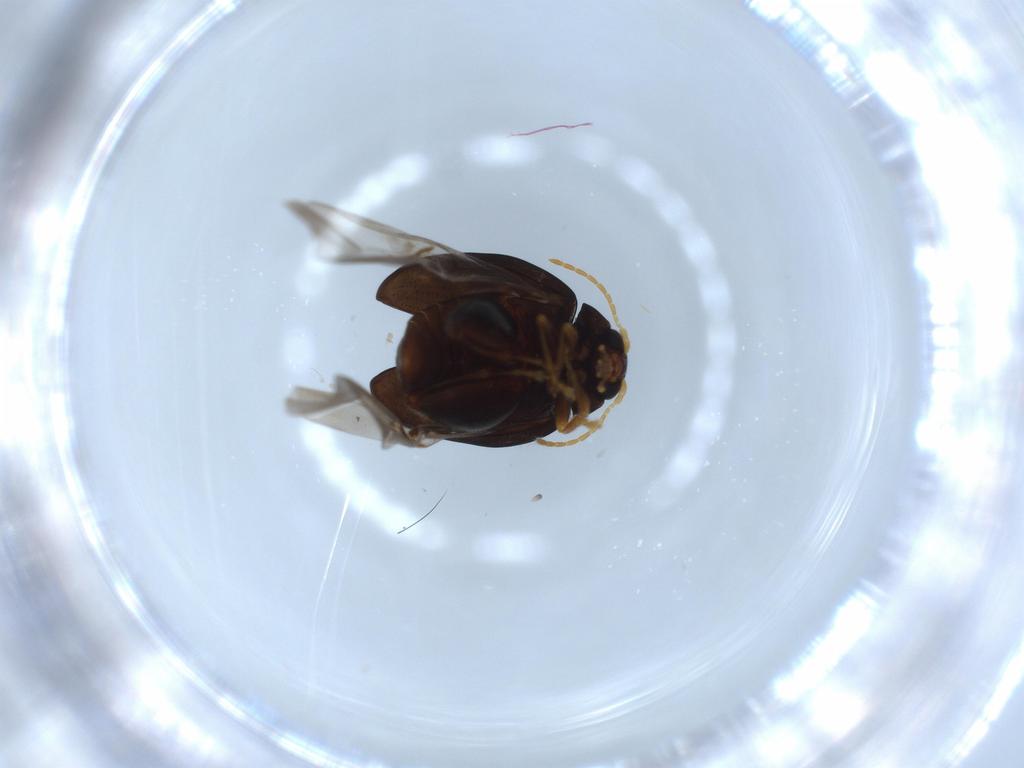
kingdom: Animalia
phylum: Arthropoda
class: Insecta
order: Coleoptera
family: Chrysomelidae
